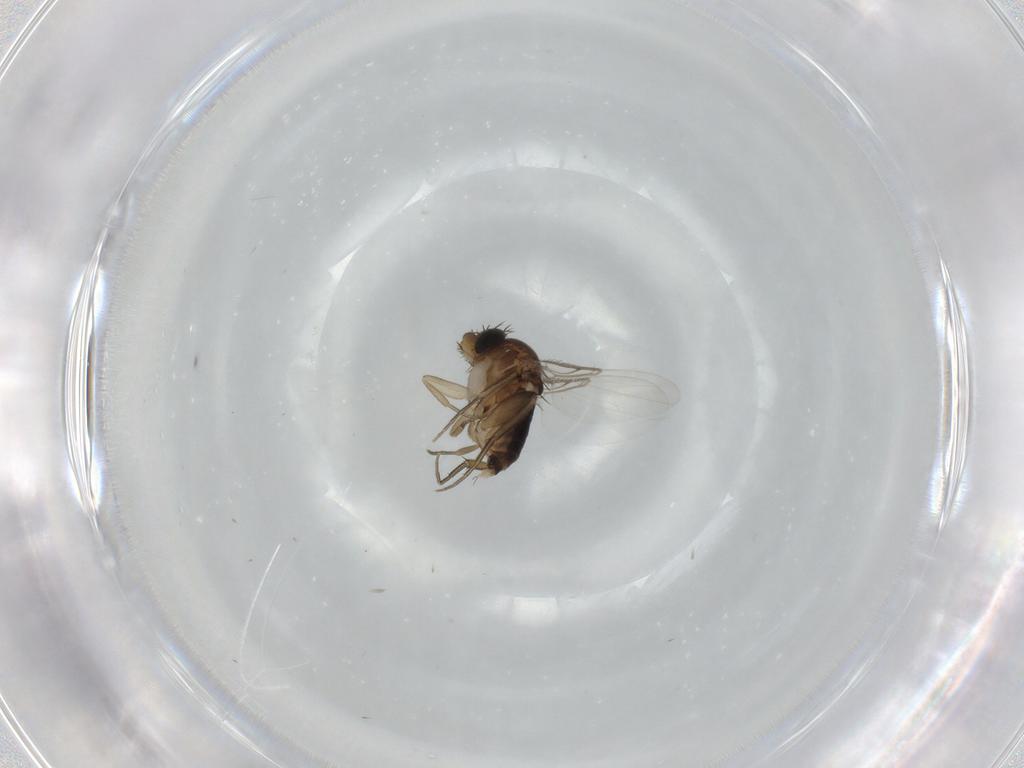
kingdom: Animalia
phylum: Arthropoda
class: Insecta
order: Diptera
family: Phoridae
